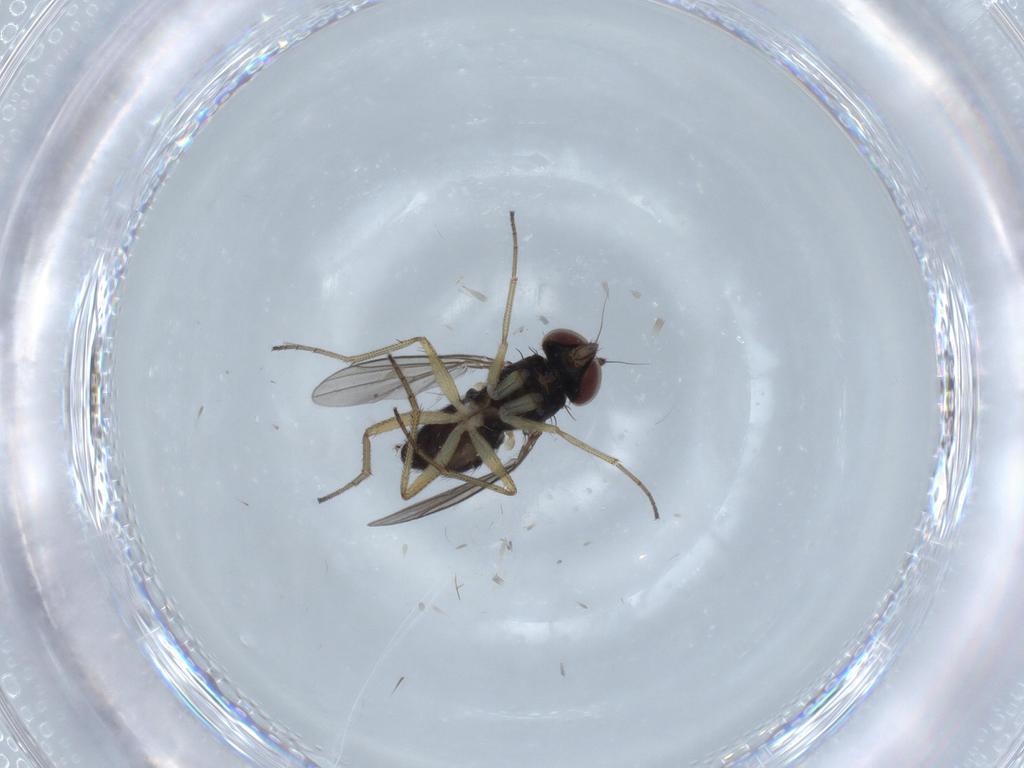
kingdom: Animalia
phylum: Arthropoda
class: Insecta
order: Diptera
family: Dolichopodidae
